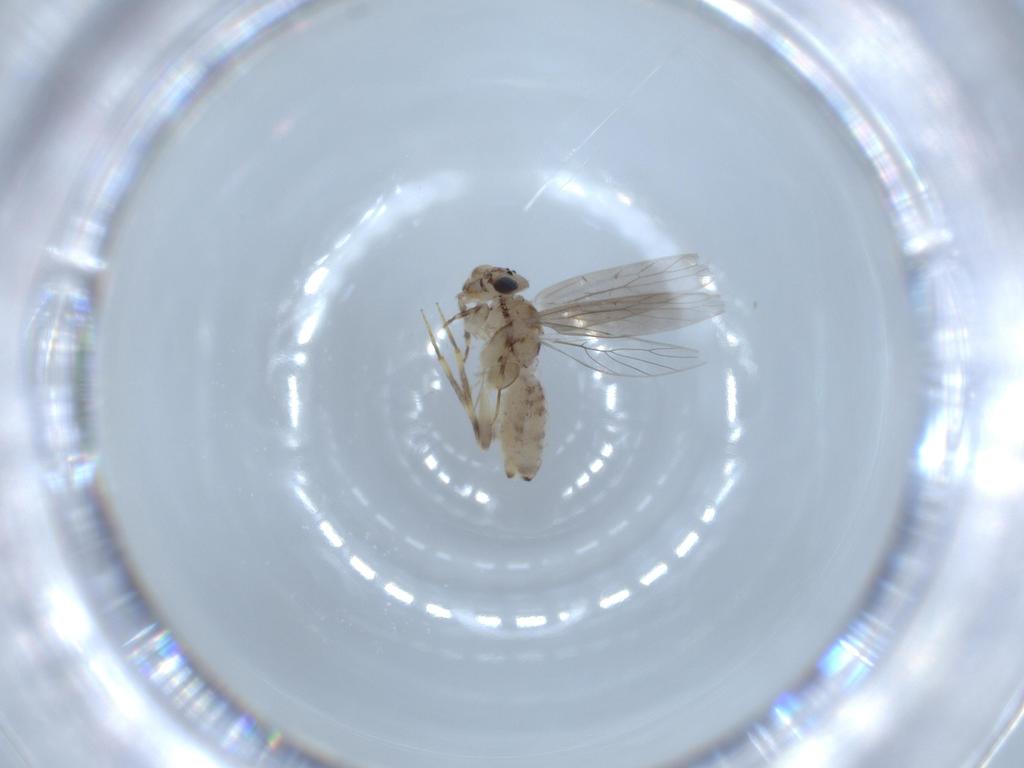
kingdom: Animalia
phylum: Arthropoda
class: Insecta
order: Psocodea
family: Lepidopsocidae
